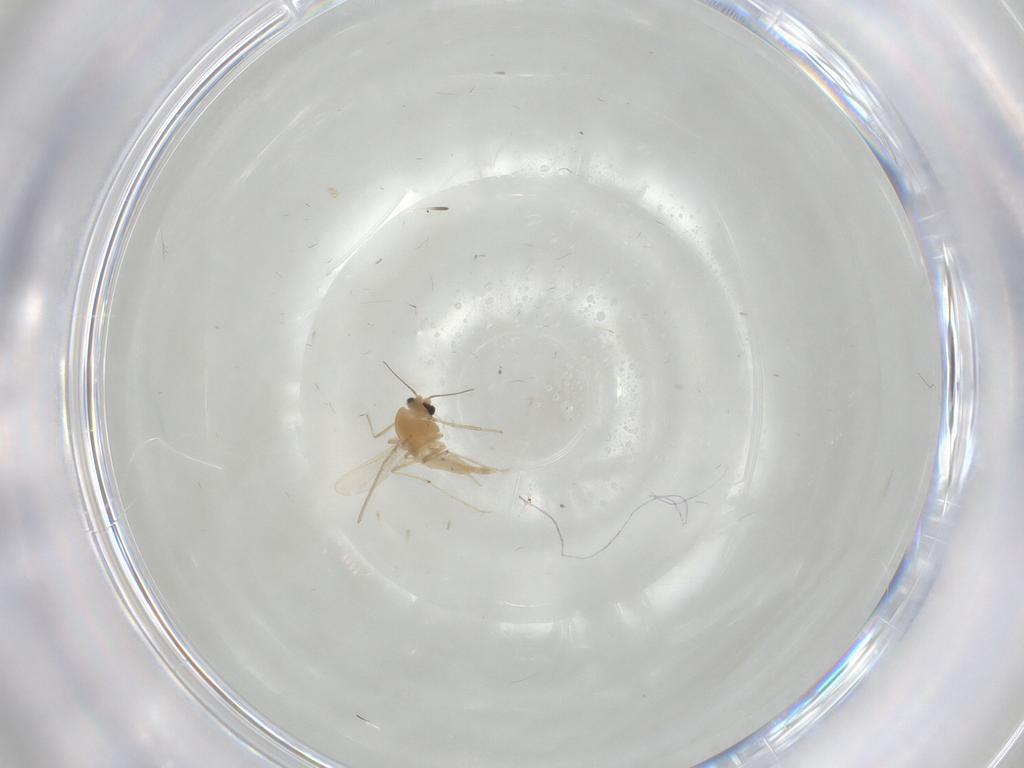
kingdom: Animalia
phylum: Arthropoda
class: Insecta
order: Diptera
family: Chironomidae
